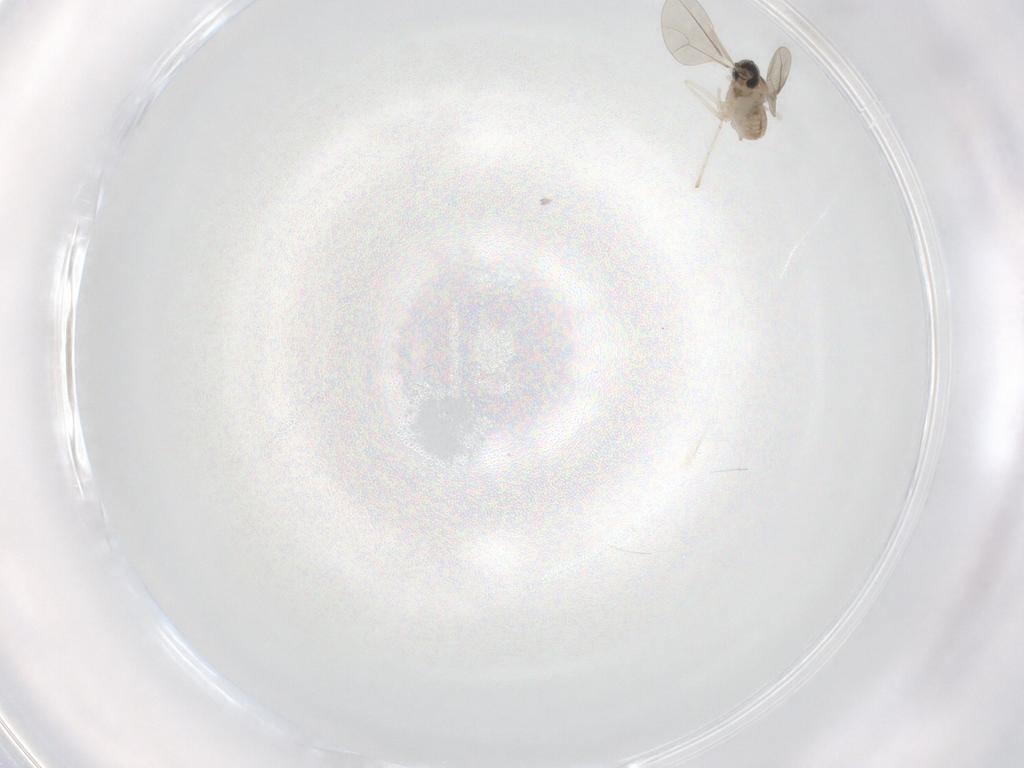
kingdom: Animalia
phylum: Arthropoda
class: Insecta
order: Diptera
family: Cecidomyiidae
